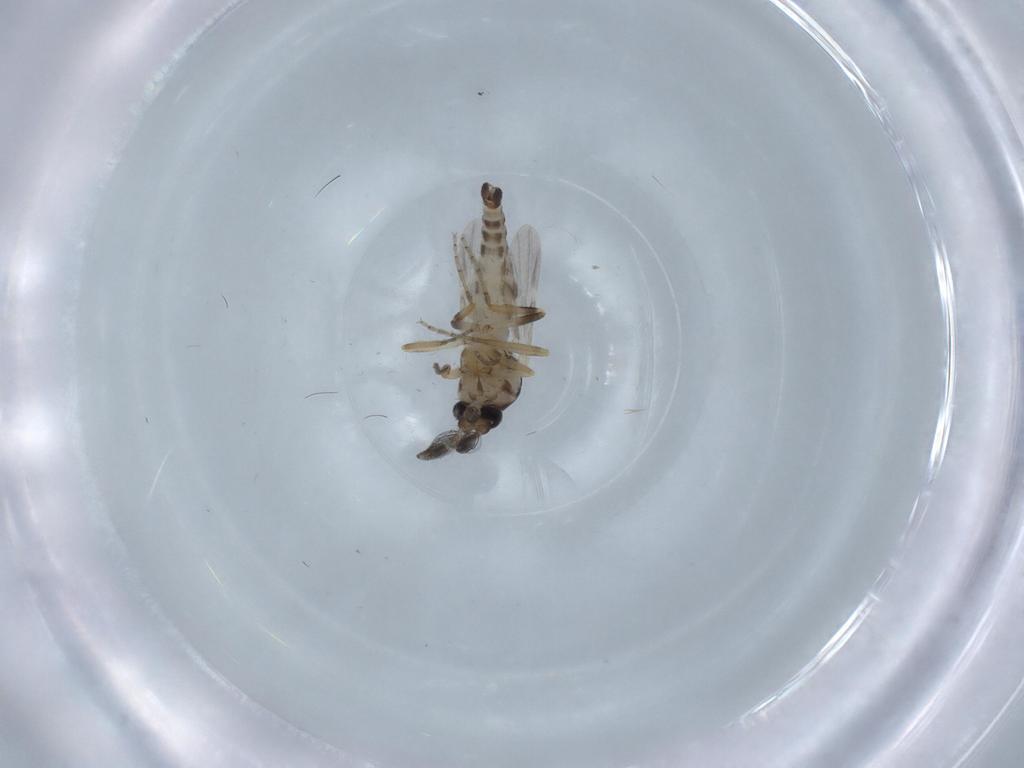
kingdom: Animalia
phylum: Arthropoda
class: Insecta
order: Diptera
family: Ceratopogonidae
